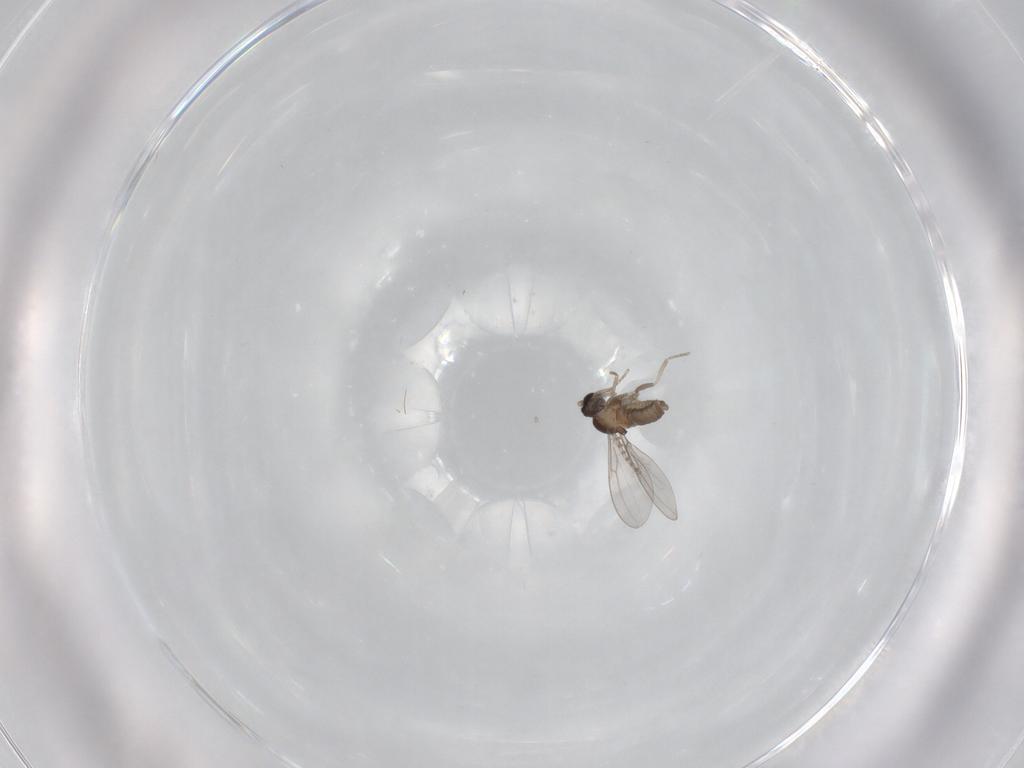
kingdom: Animalia
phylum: Arthropoda
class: Insecta
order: Diptera
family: Cecidomyiidae
